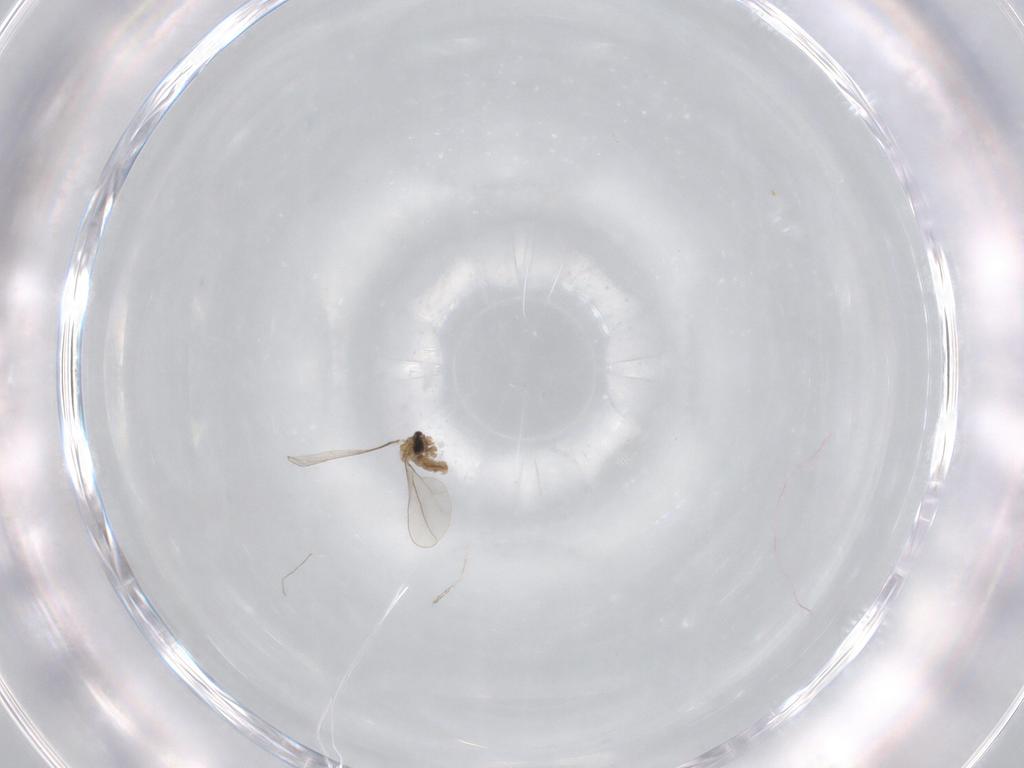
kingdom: Animalia
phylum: Arthropoda
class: Insecta
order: Diptera
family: Cecidomyiidae
